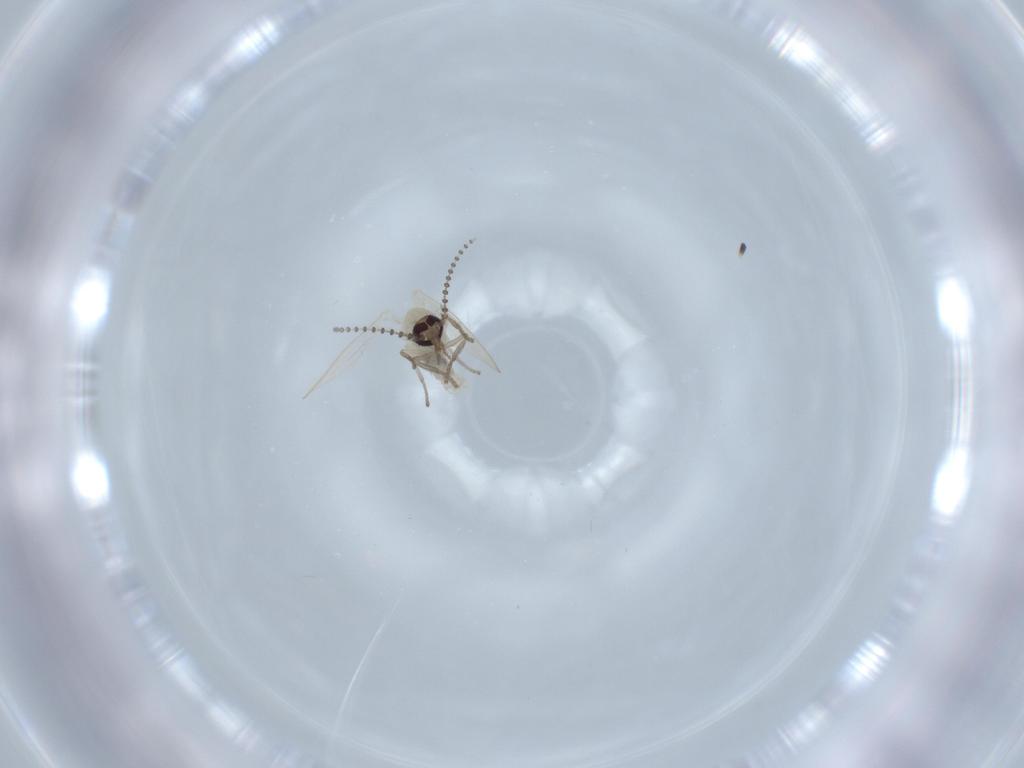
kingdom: Animalia
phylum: Arthropoda
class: Insecta
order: Diptera
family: Psychodidae
